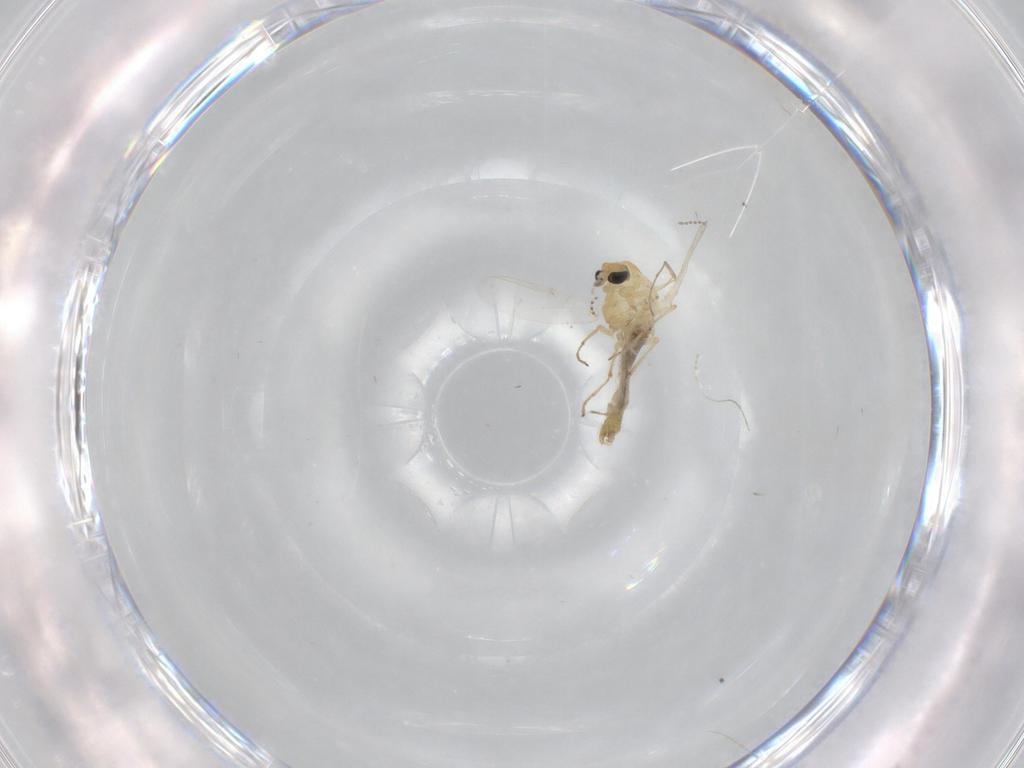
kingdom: Animalia
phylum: Arthropoda
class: Insecta
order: Diptera
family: Chironomidae
